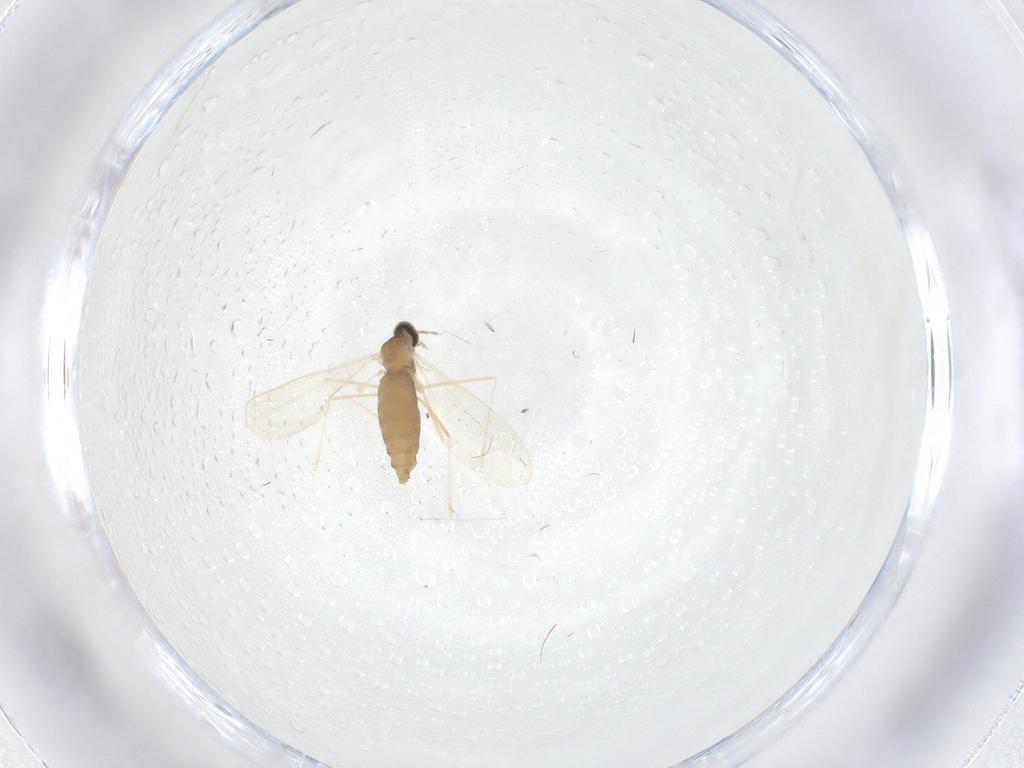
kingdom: Animalia
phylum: Arthropoda
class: Insecta
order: Diptera
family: Cecidomyiidae
